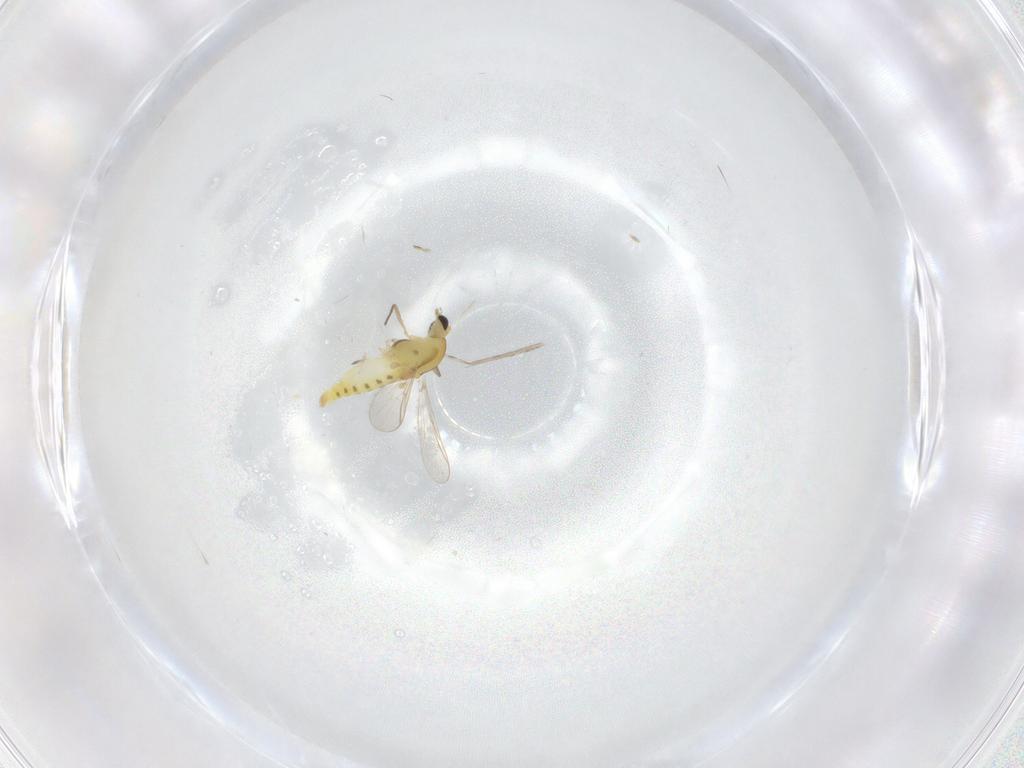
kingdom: Animalia
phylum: Arthropoda
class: Insecta
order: Diptera
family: Chironomidae
